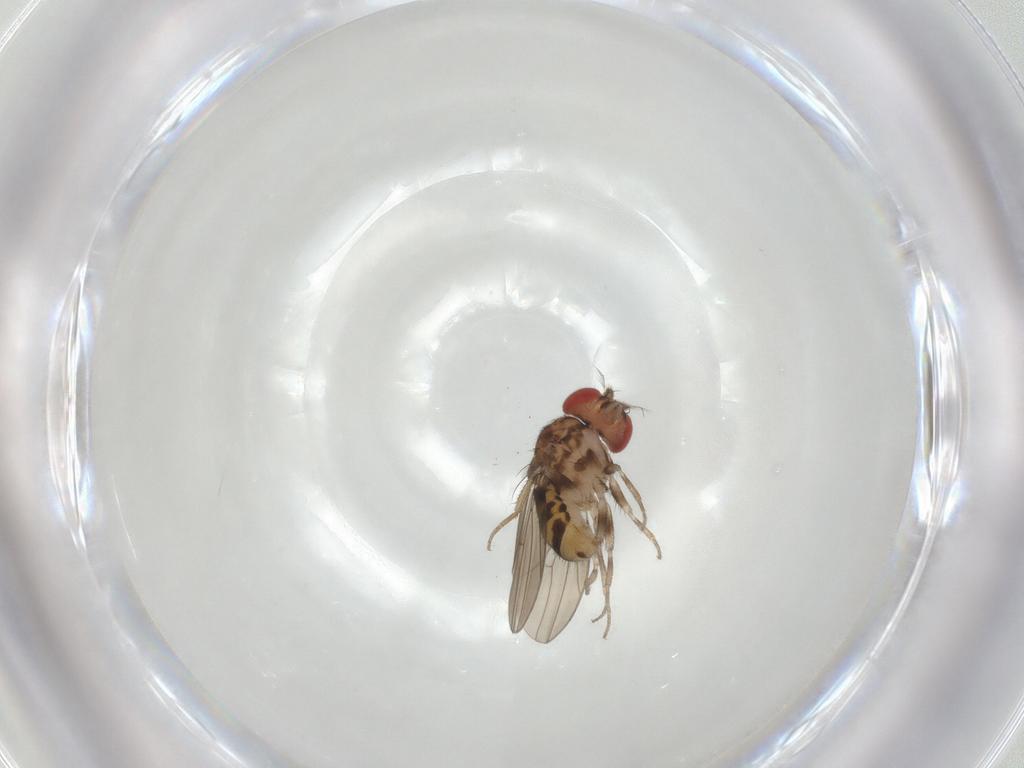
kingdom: Animalia
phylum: Arthropoda
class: Insecta
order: Diptera
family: Drosophilidae
